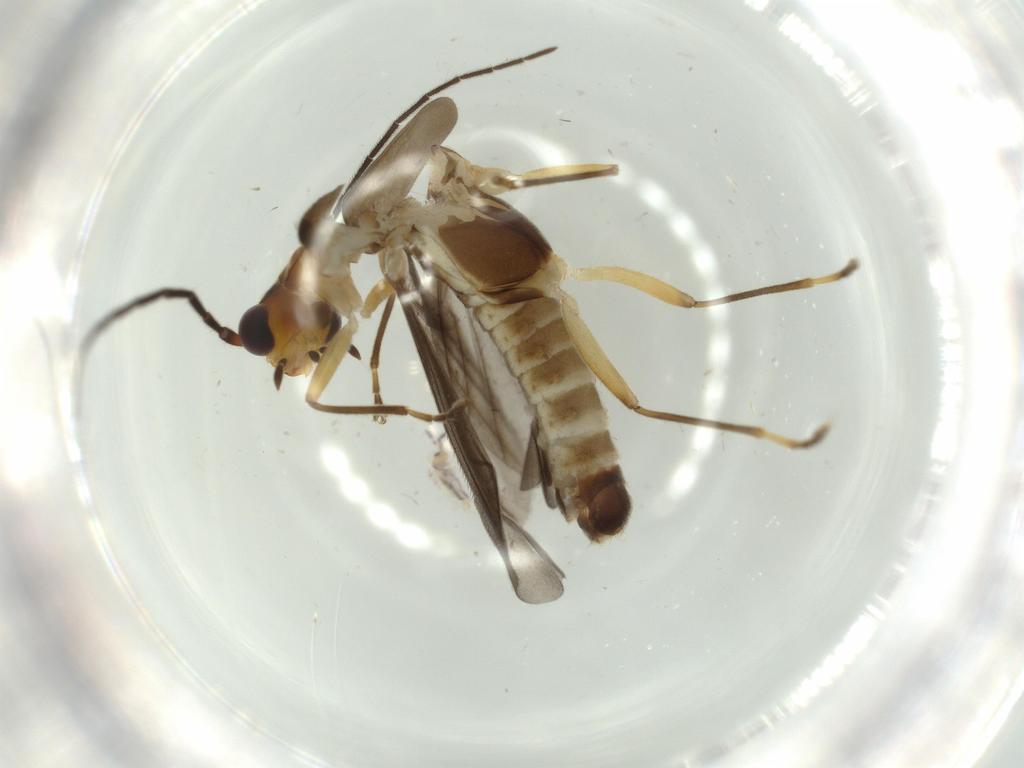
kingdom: Animalia
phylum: Arthropoda
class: Insecta
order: Coleoptera
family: Cantharidae
